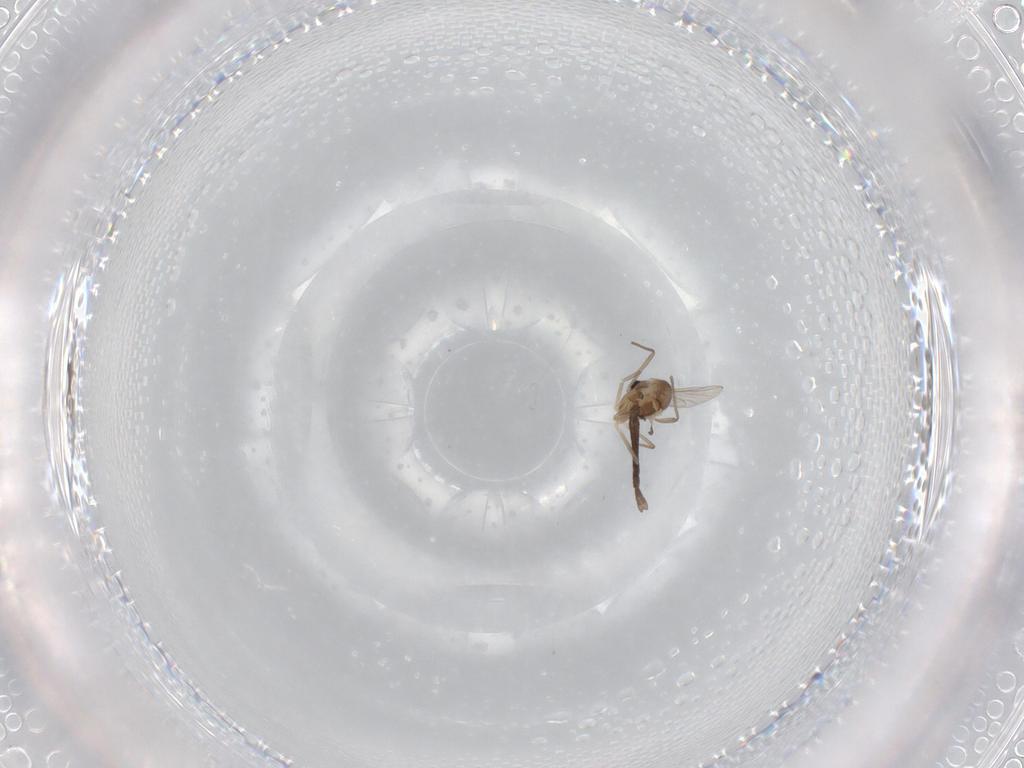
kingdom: Animalia
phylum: Arthropoda
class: Insecta
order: Diptera
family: Chironomidae
